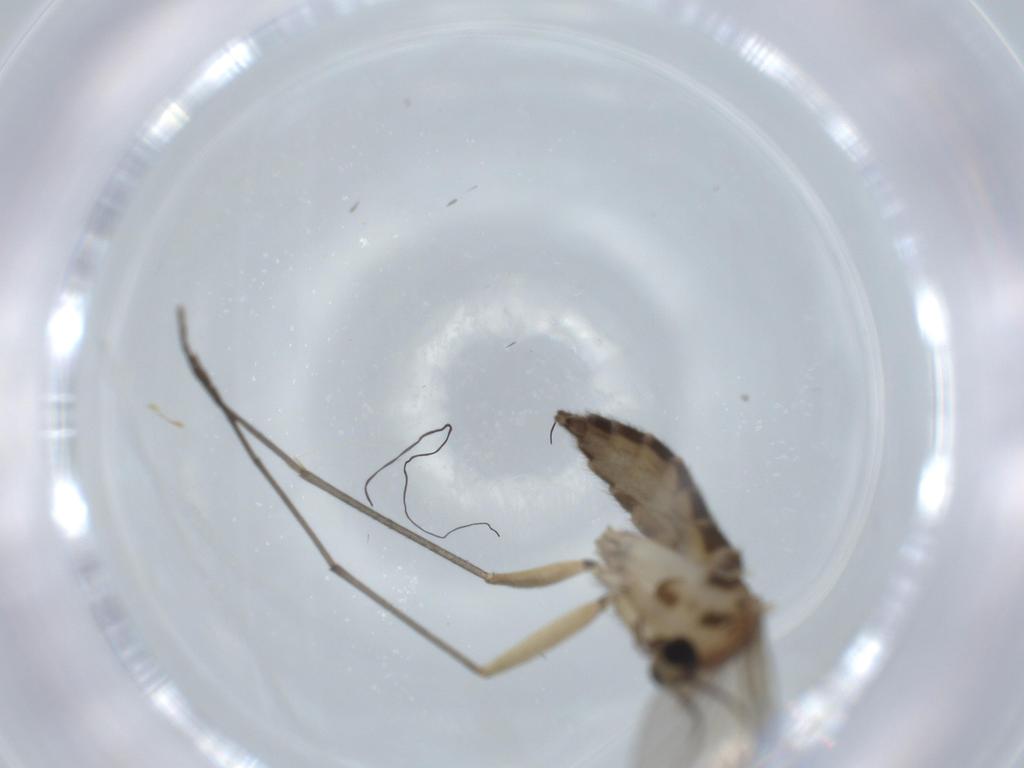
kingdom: Animalia
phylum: Arthropoda
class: Insecta
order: Diptera
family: Sciaridae
